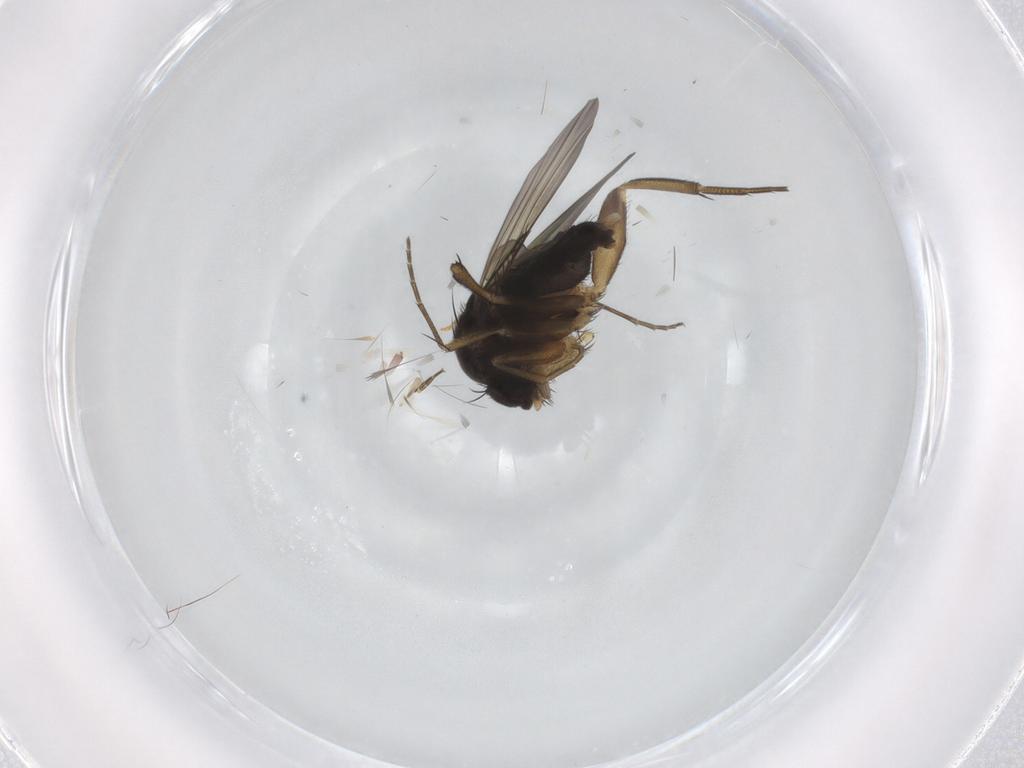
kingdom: Animalia
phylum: Arthropoda
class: Insecta
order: Diptera
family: Phoridae
